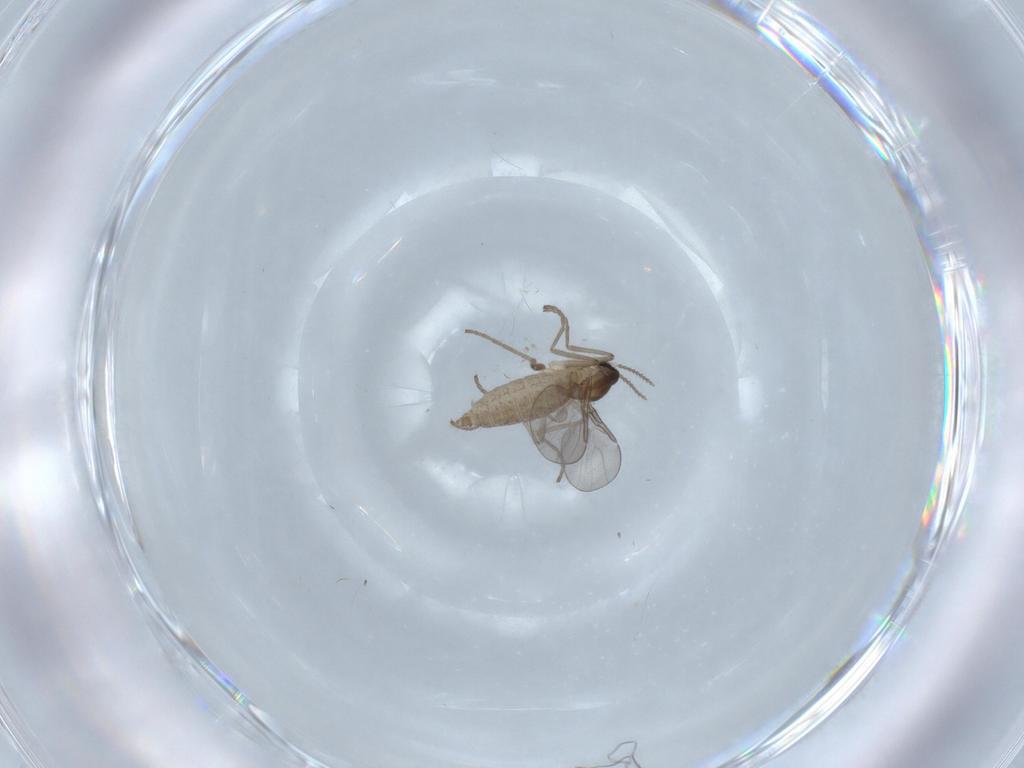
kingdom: Animalia
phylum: Arthropoda
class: Insecta
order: Diptera
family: Cecidomyiidae
